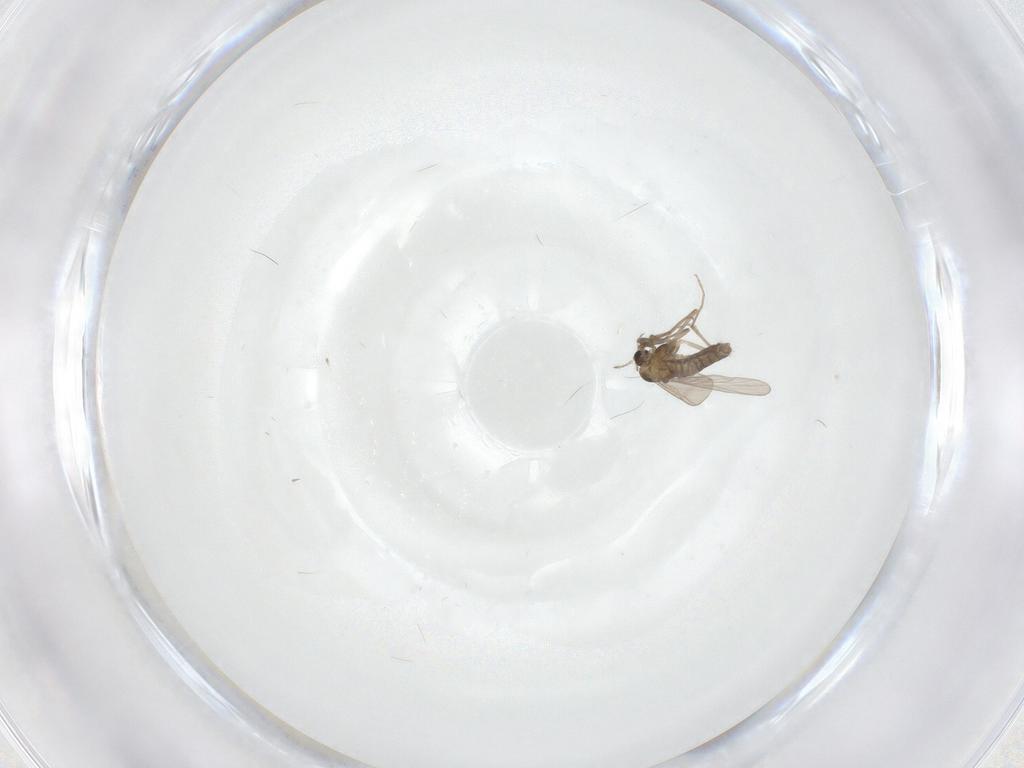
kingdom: Animalia
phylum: Arthropoda
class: Insecta
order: Diptera
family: Chironomidae
